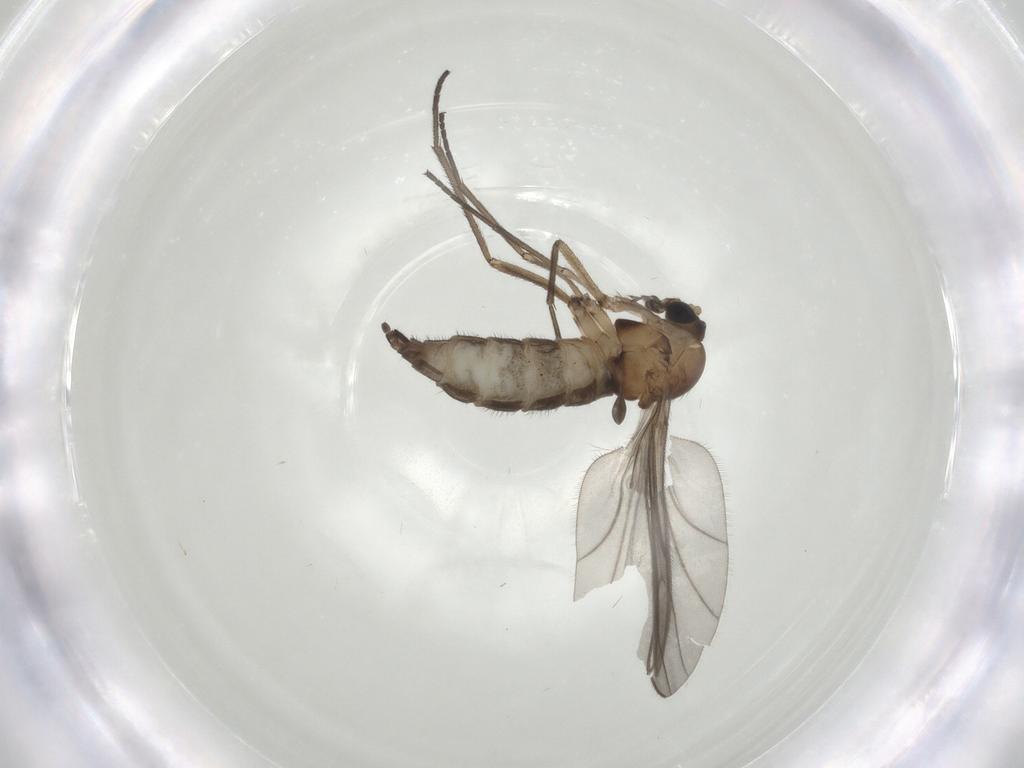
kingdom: Animalia
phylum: Arthropoda
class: Insecta
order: Diptera
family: Sciaridae
